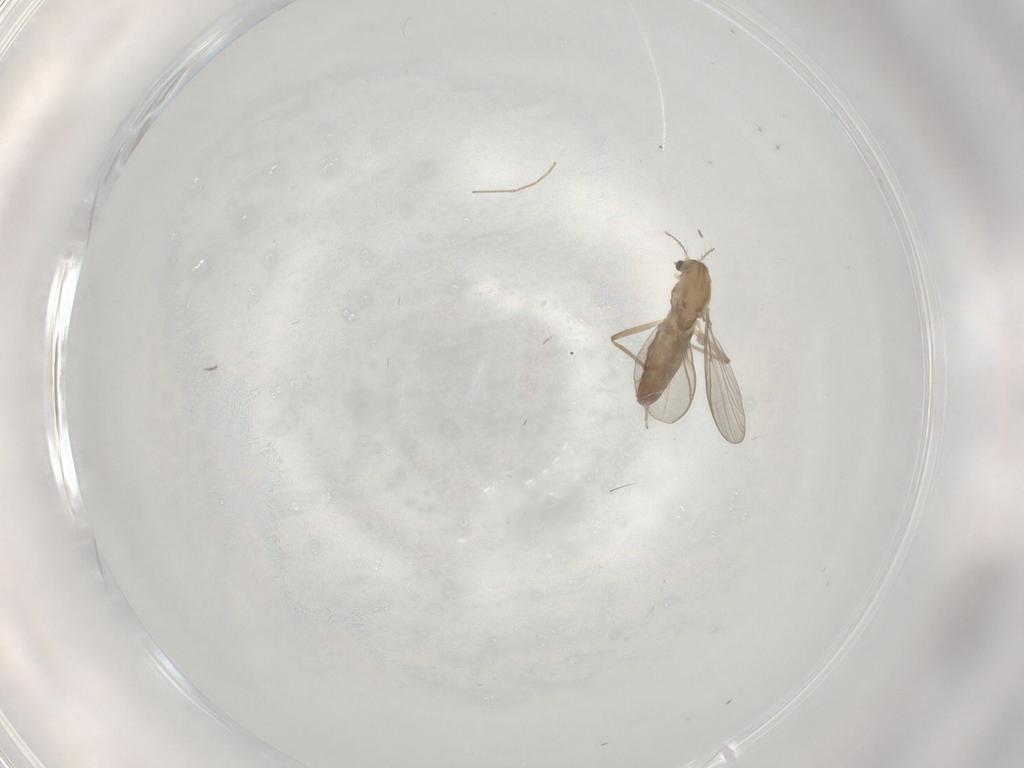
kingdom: Animalia
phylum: Arthropoda
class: Insecta
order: Diptera
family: Chironomidae
